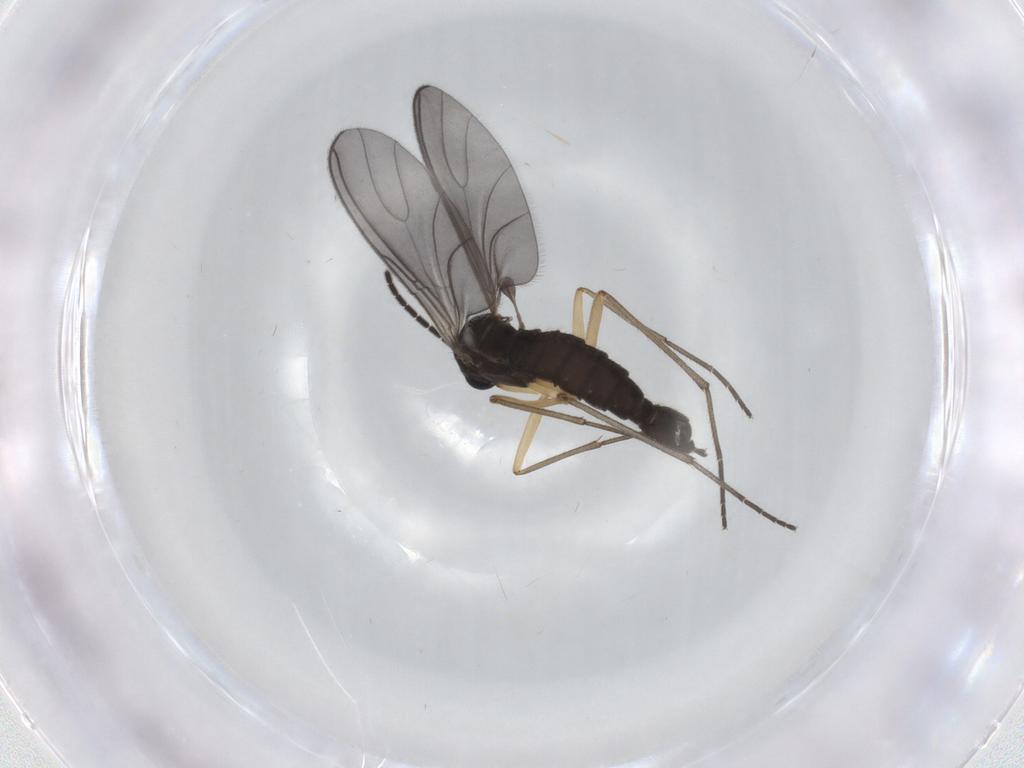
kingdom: Animalia
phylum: Arthropoda
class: Insecta
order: Diptera
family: Sciaridae
